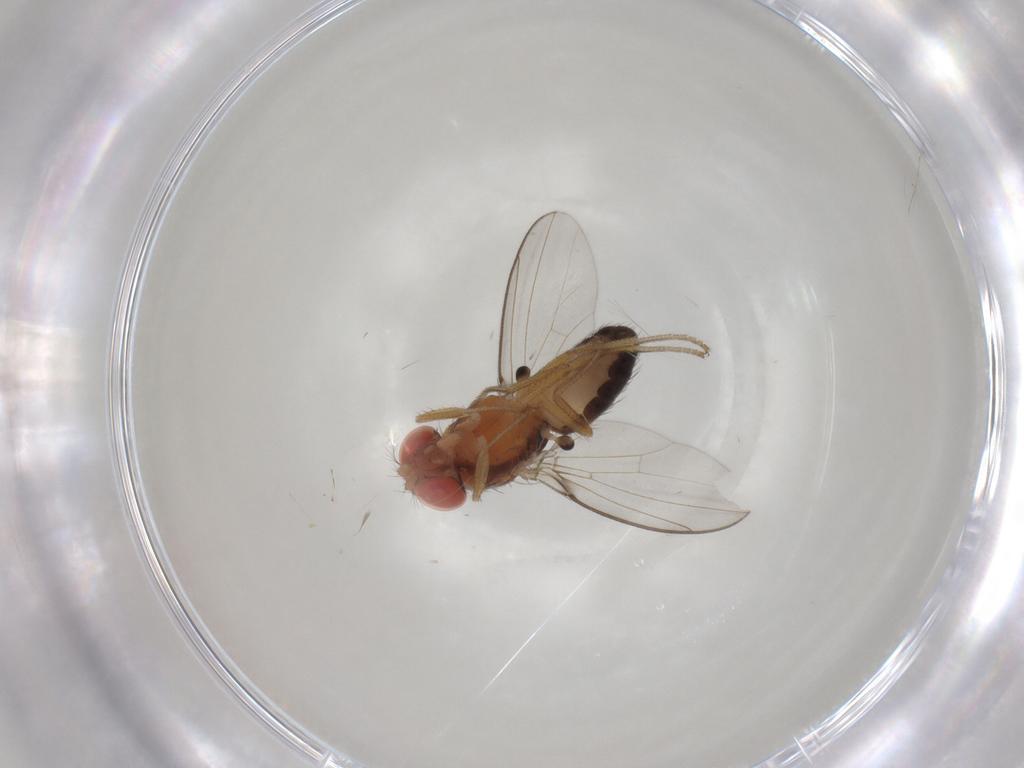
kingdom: Animalia
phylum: Arthropoda
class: Insecta
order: Diptera
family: Drosophilidae
